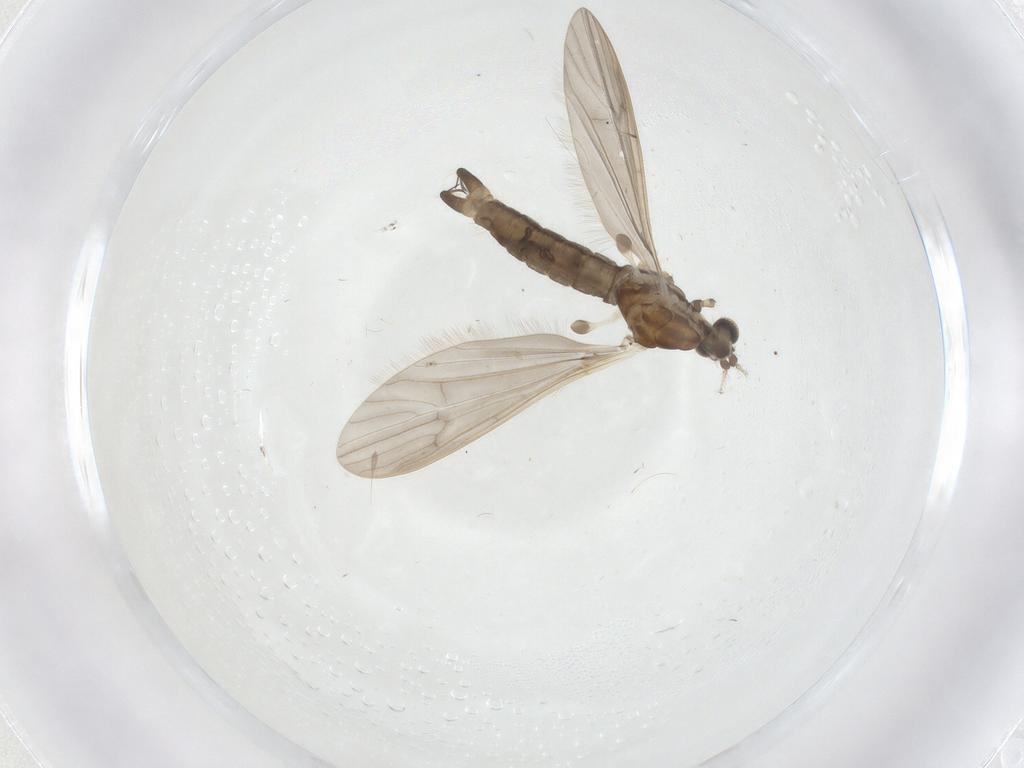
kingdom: Animalia
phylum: Arthropoda
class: Insecta
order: Diptera
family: Limoniidae
